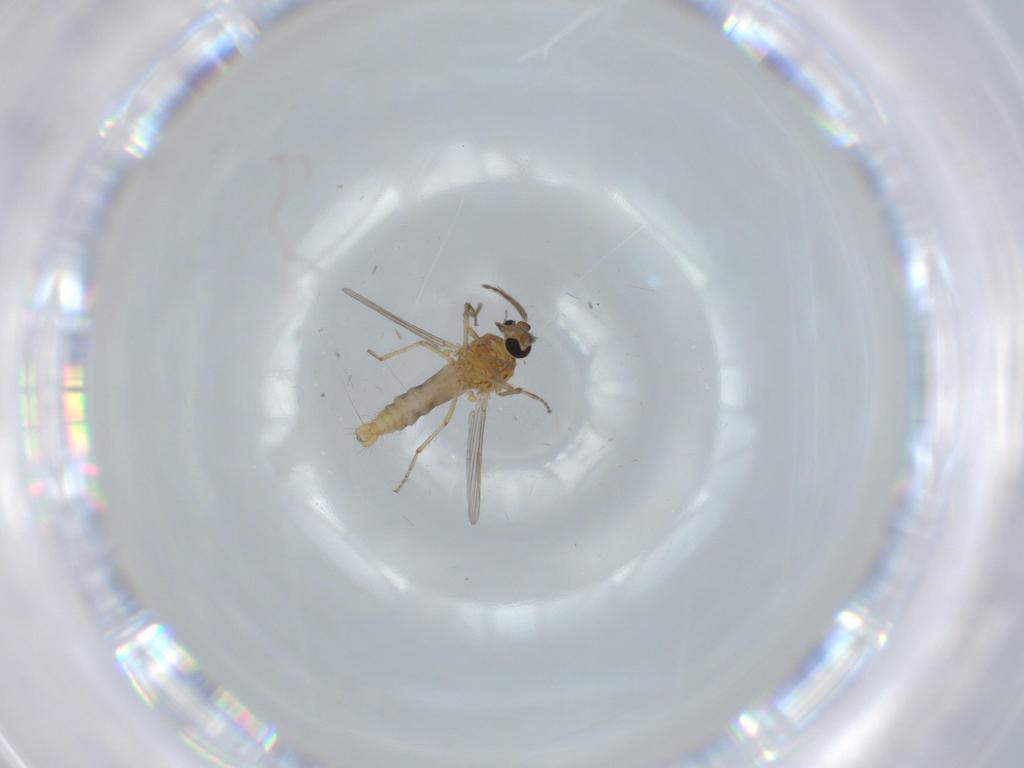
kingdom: Animalia
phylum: Arthropoda
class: Insecta
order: Diptera
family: Ceratopogonidae
